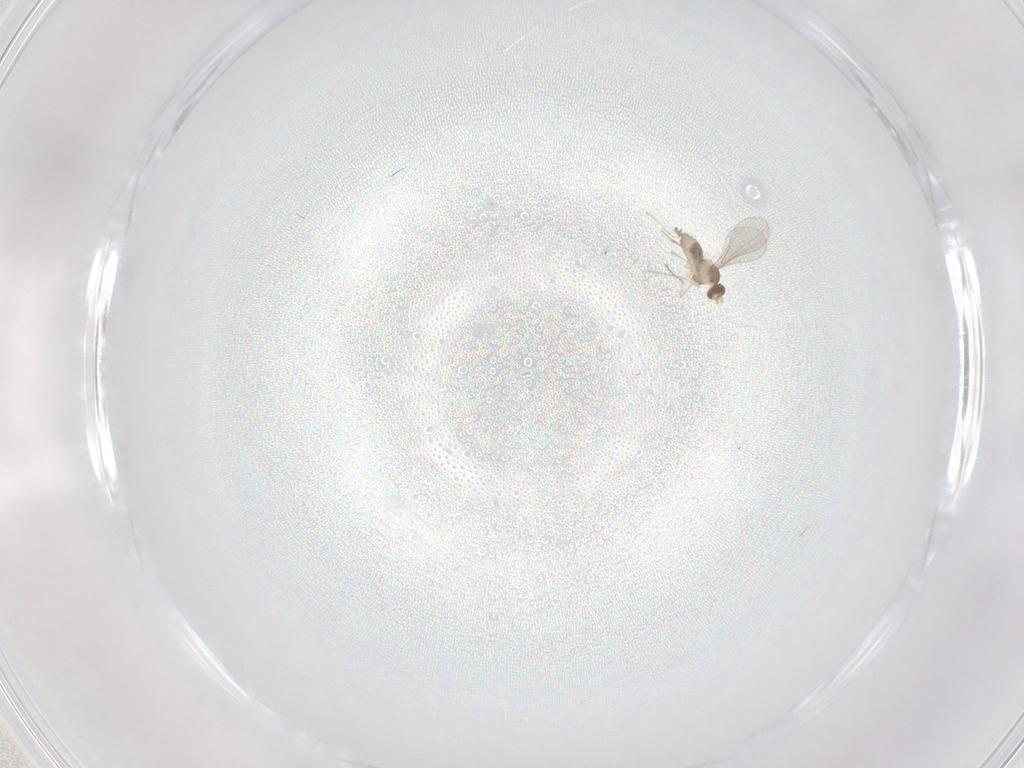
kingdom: Animalia
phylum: Arthropoda
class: Insecta
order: Diptera
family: Cecidomyiidae
